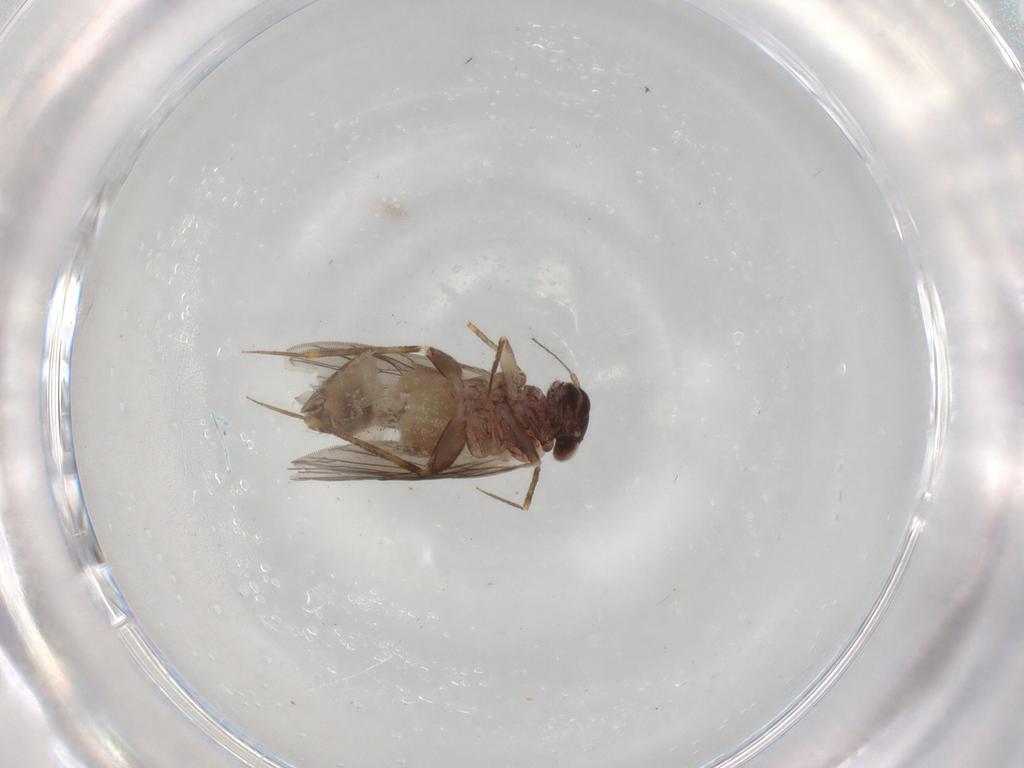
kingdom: Animalia
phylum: Arthropoda
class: Insecta
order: Psocodea
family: Lepidopsocidae
